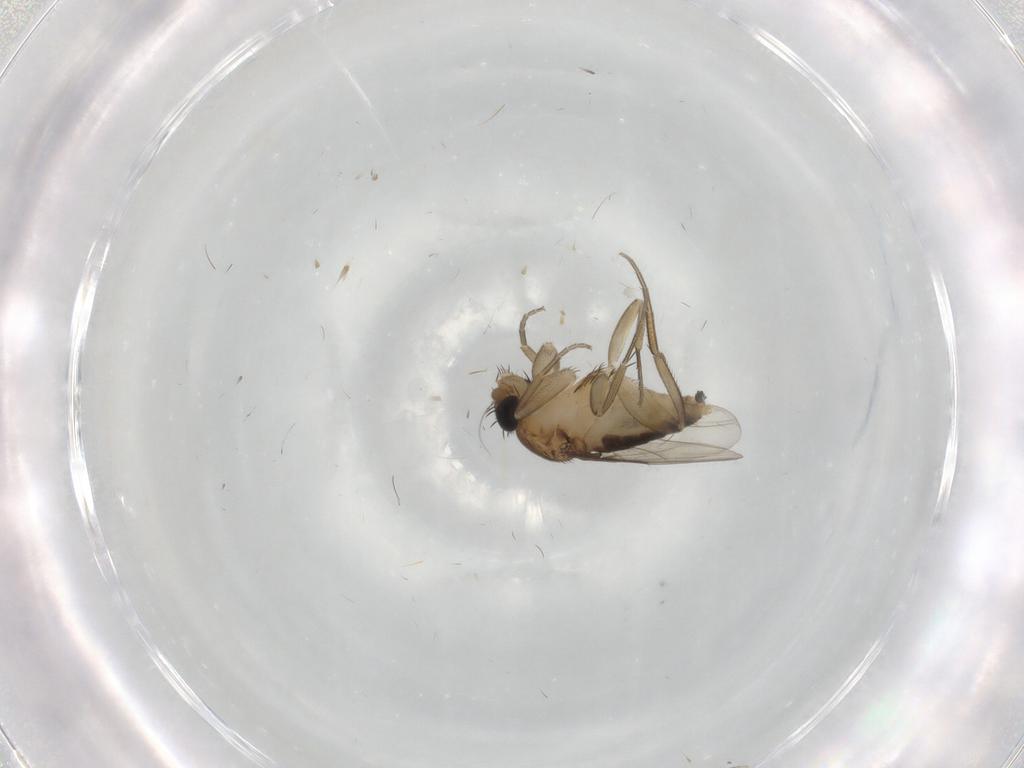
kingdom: Animalia
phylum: Arthropoda
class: Insecta
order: Diptera
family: Phoridae
